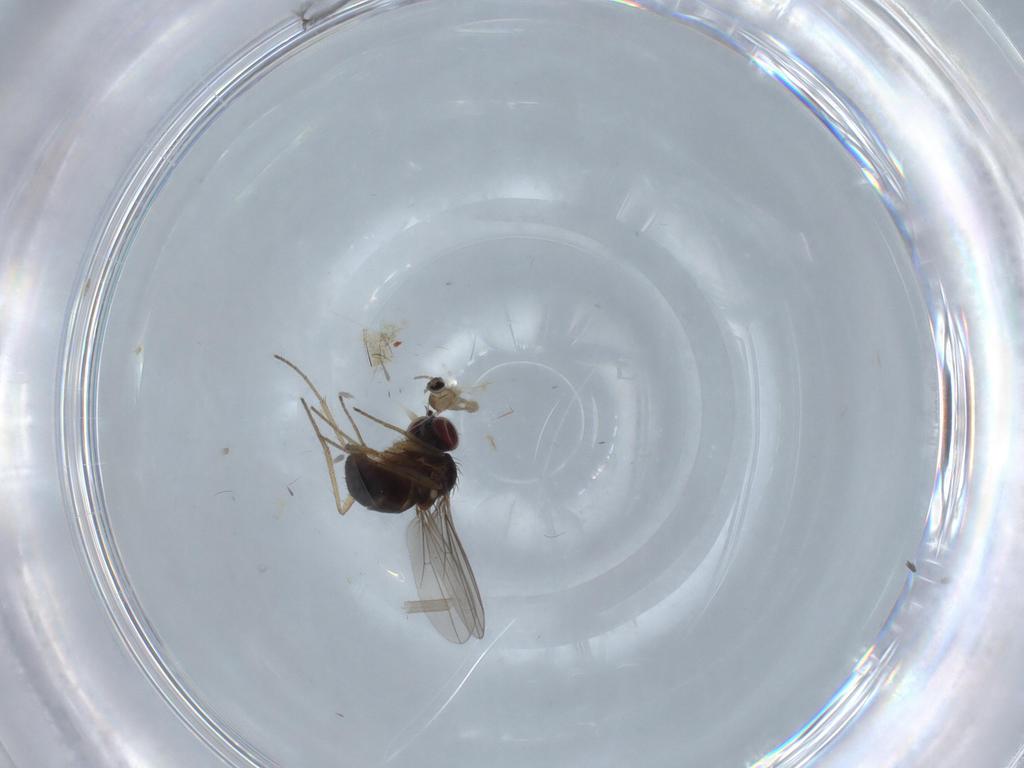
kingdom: Animalia
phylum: Arthropoda
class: Insecta
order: Diptera
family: Dolichopodidae
